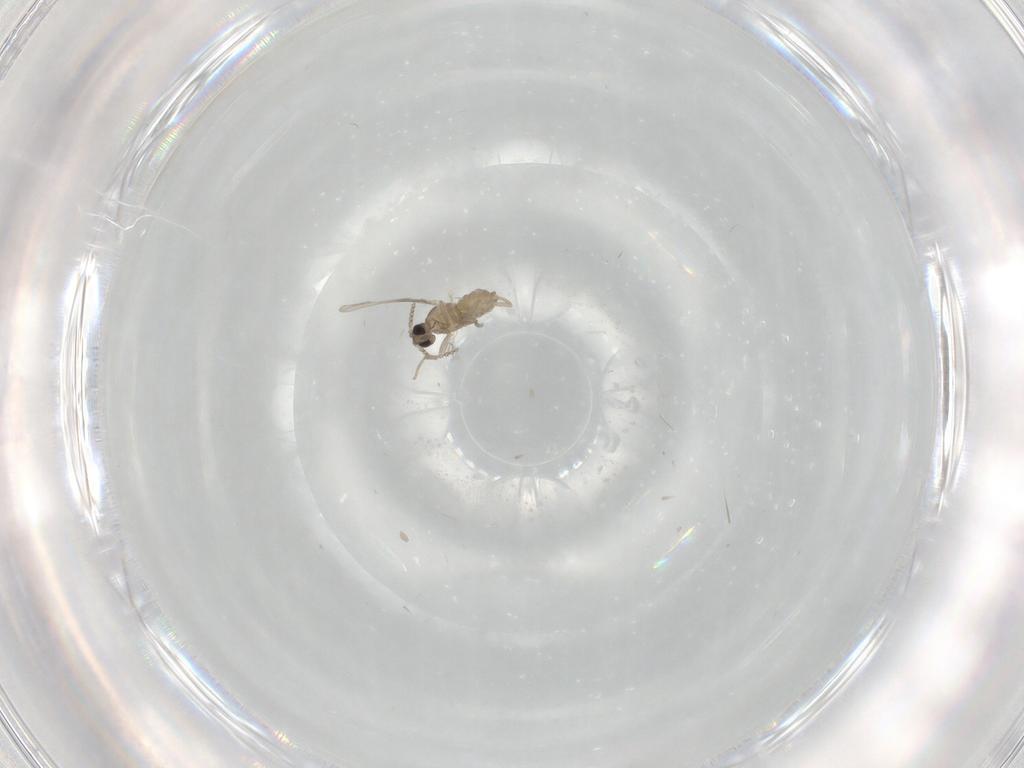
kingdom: Animalia
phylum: Arthropoda
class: Insecta
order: Diptera
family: Cecidomyiidae
